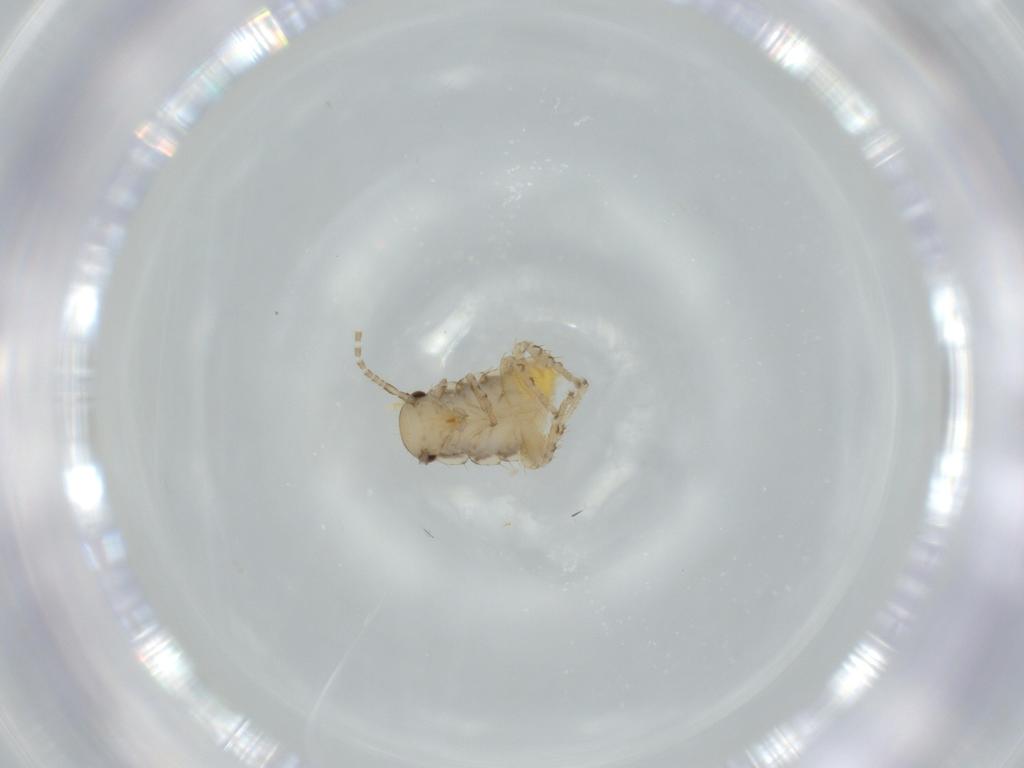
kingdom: Animalia
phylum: Arthropoda
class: Insecta
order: Blattodea
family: Ectobiidae
